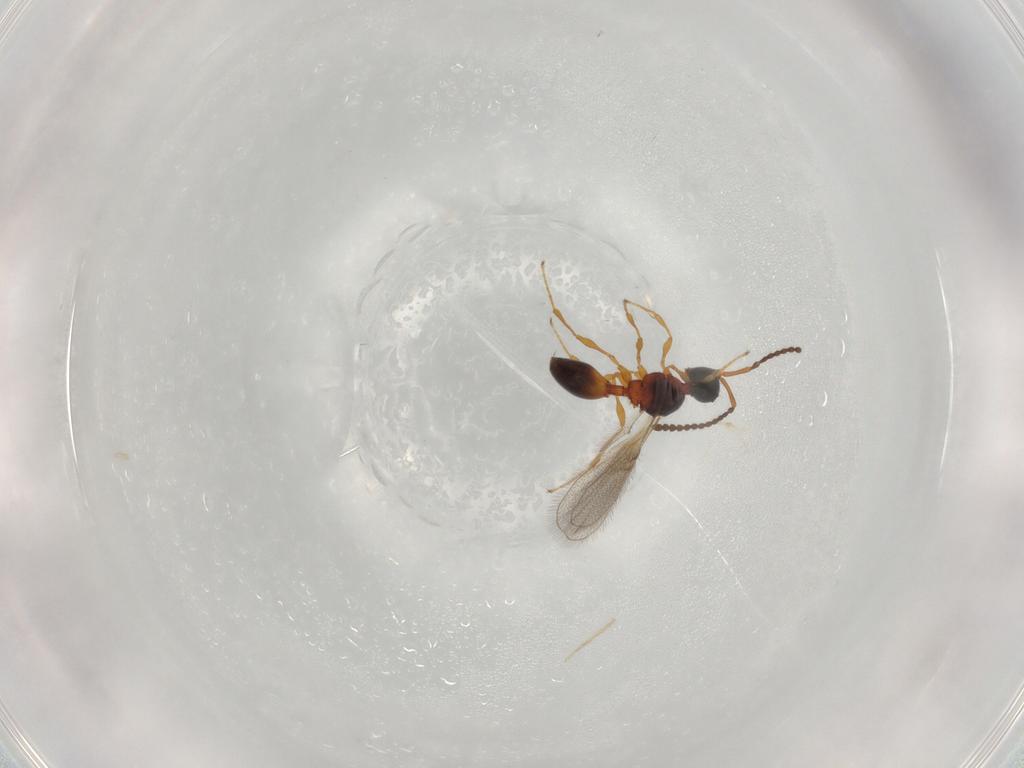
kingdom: Animalia
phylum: Arthropoda
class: Insecta
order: Hymenoptera
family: Diapriidae
